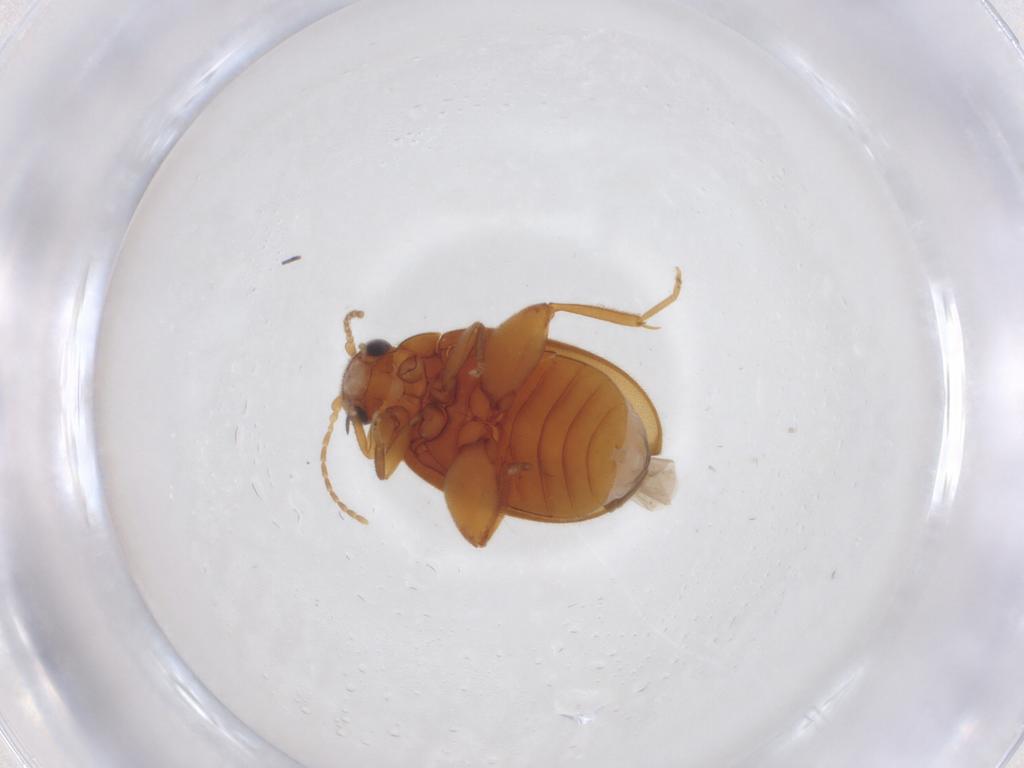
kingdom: Animalia
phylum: Arthropoda
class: Insecta
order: Coleoptera
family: Scirtidae
